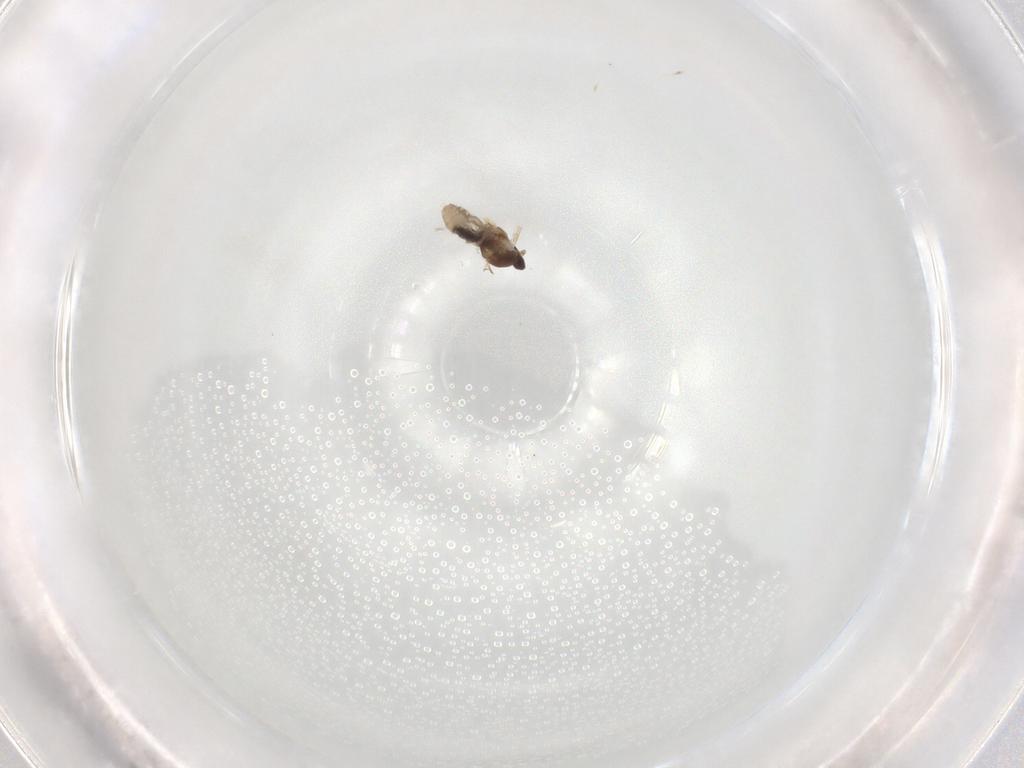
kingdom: Animalia
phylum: Arthropoda
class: Insecta
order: Diptera
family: Cecidomyiidae
